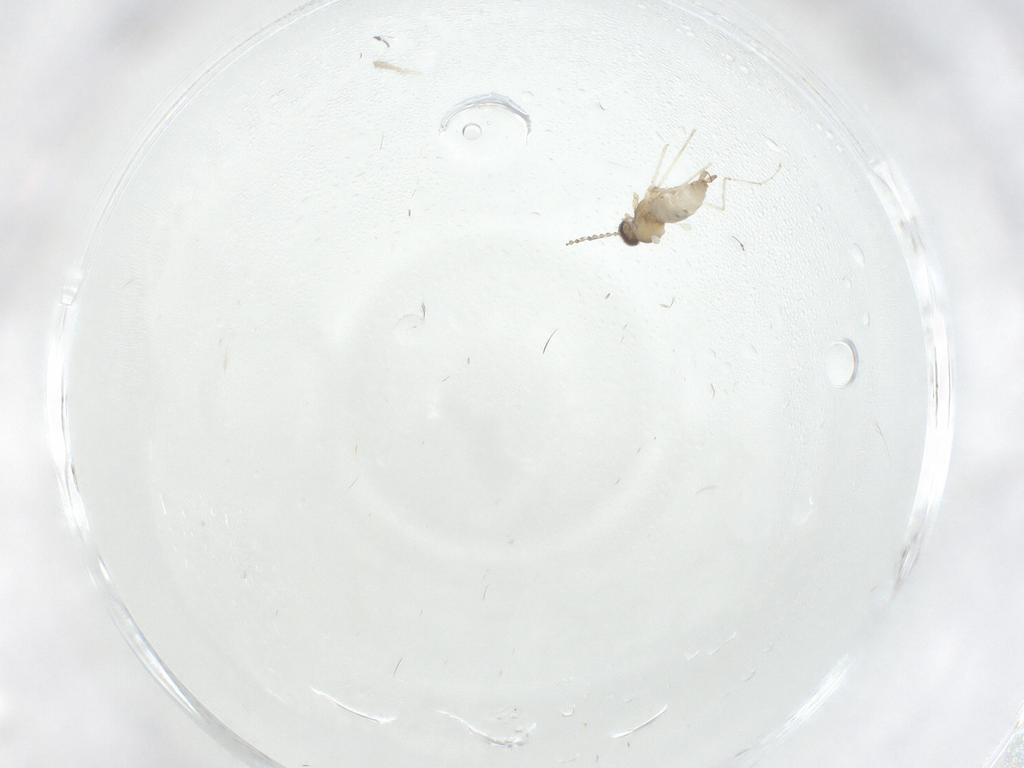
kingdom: Animalia
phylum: Arthropoda
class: Insecta
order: Diptera
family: Cecidomyiidae
